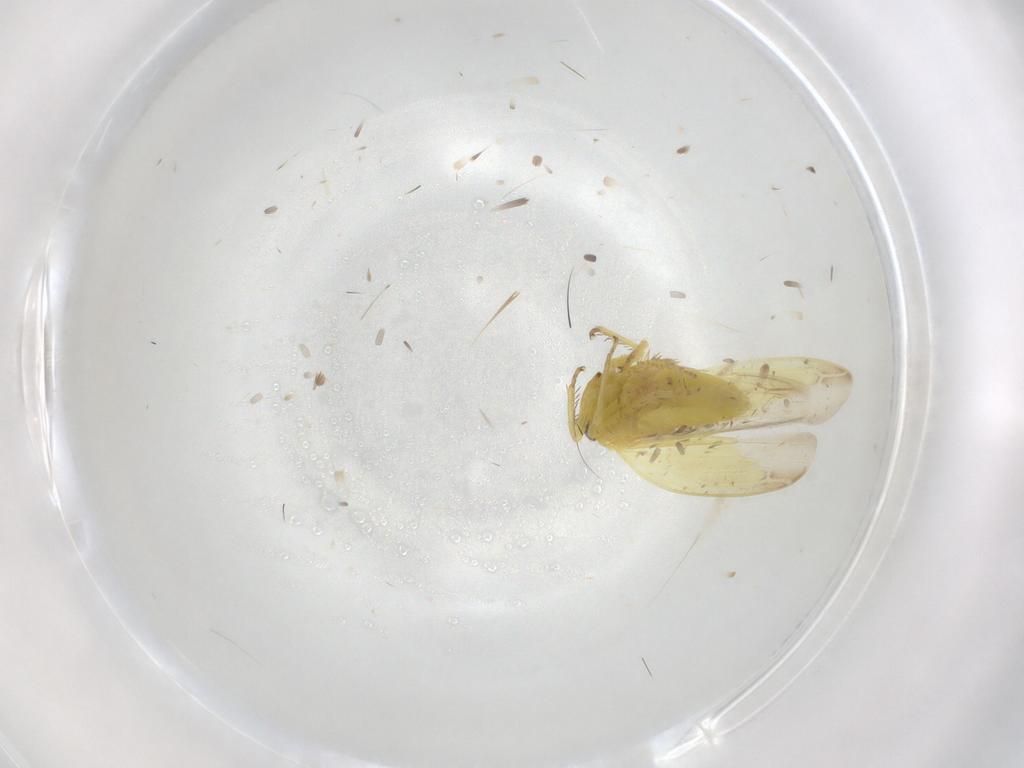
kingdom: Animalia
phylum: Arthropoda
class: Insecta
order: Hemiptera
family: Cicadellidae
